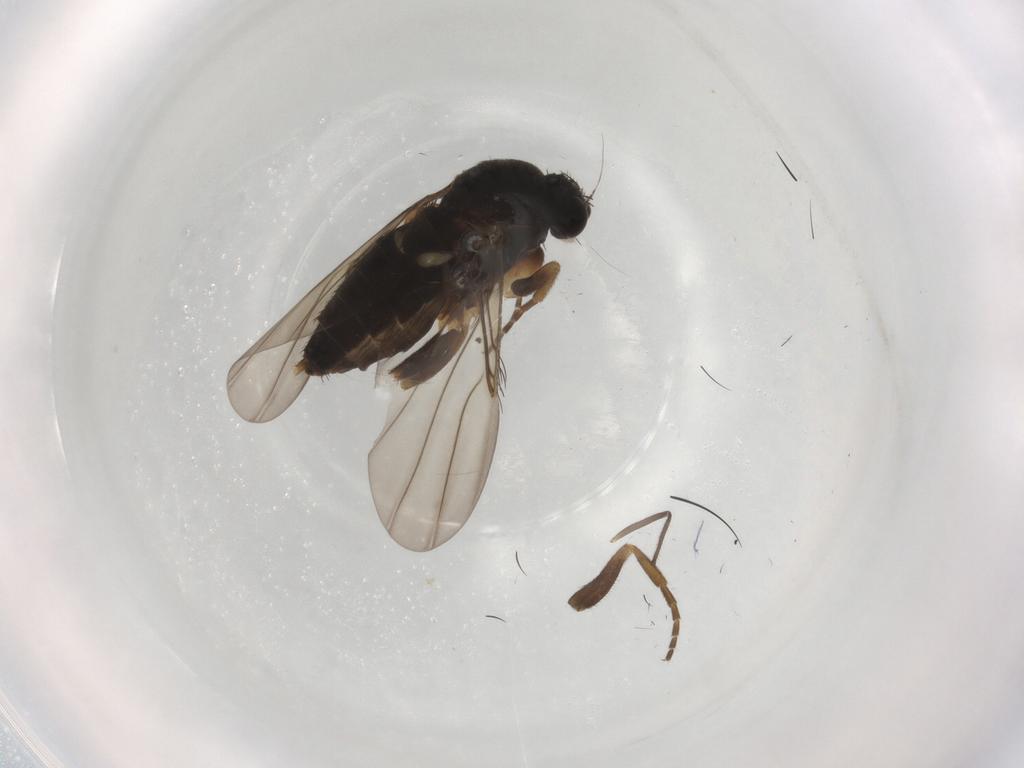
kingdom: Animalia
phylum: Arthropoda
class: Insecta
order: Diptera
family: Phoridae
